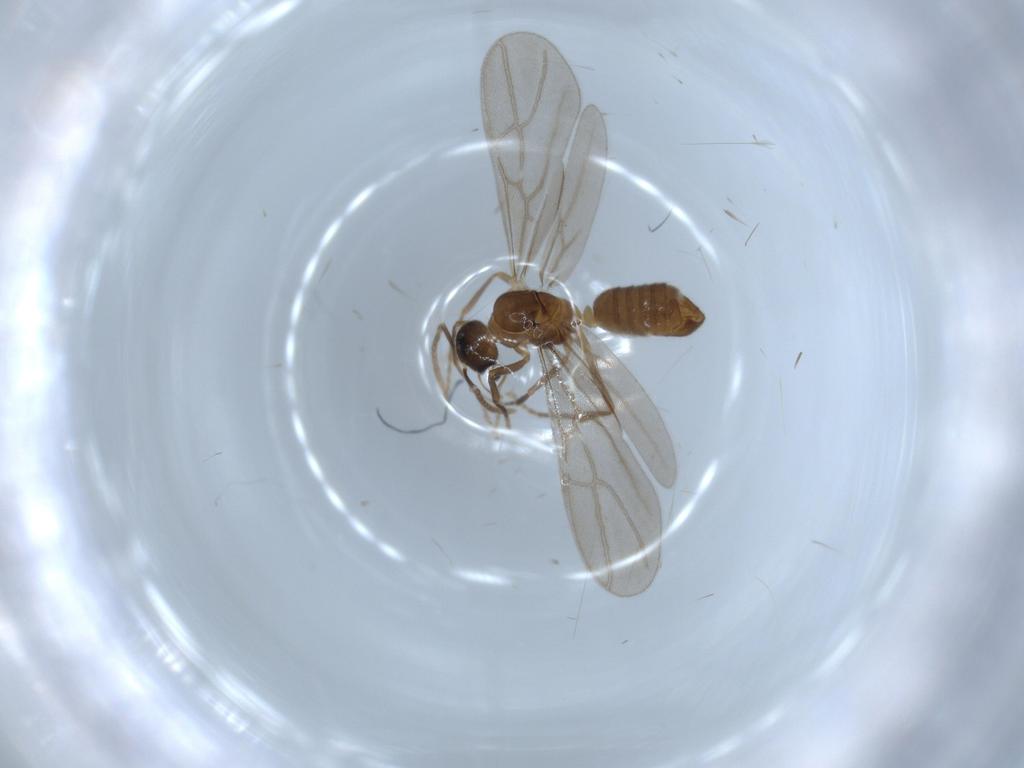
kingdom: Animalia
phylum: Arthropoda
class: Insecta
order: Hymenoptera
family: Formicidae
